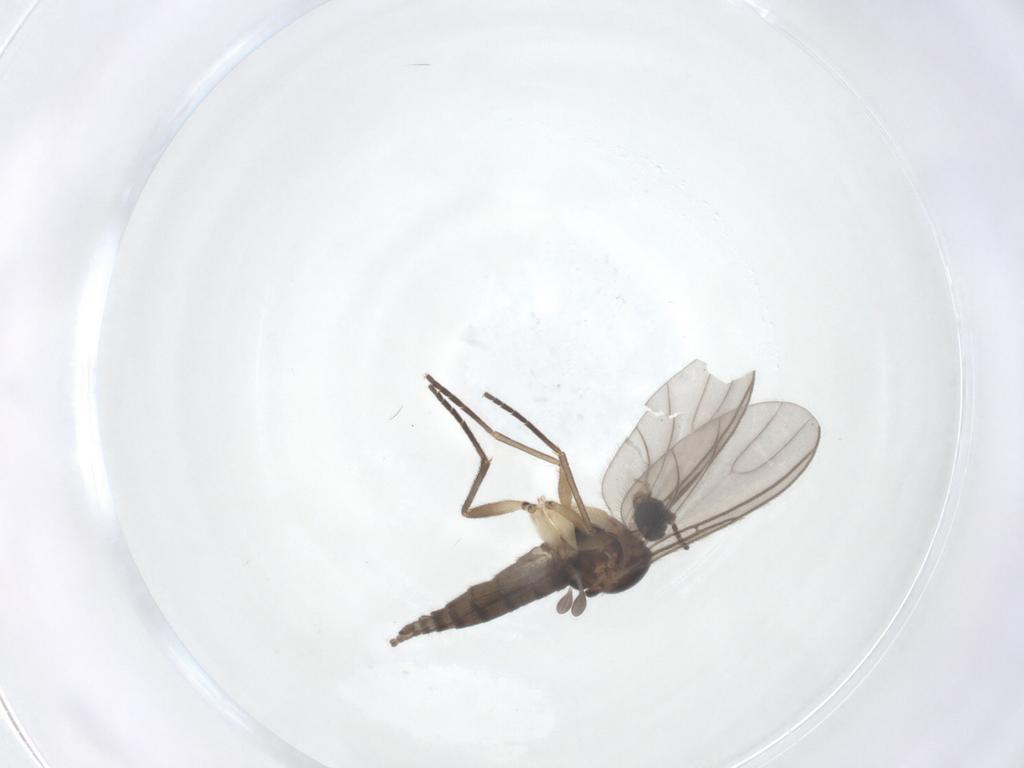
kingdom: Animalia
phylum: Arthropoda
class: Insecta
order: Diptera
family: Sciaridae
